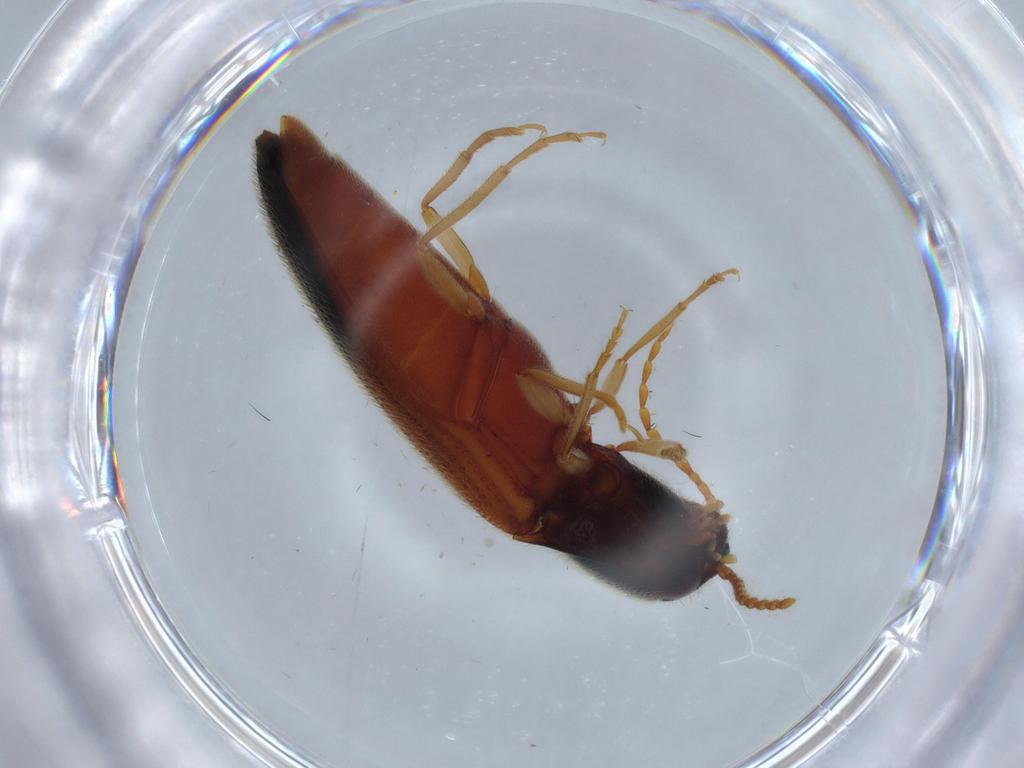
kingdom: Animalia
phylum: Arthropoda
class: Insecta
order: Coleoptera
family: Elateridae
